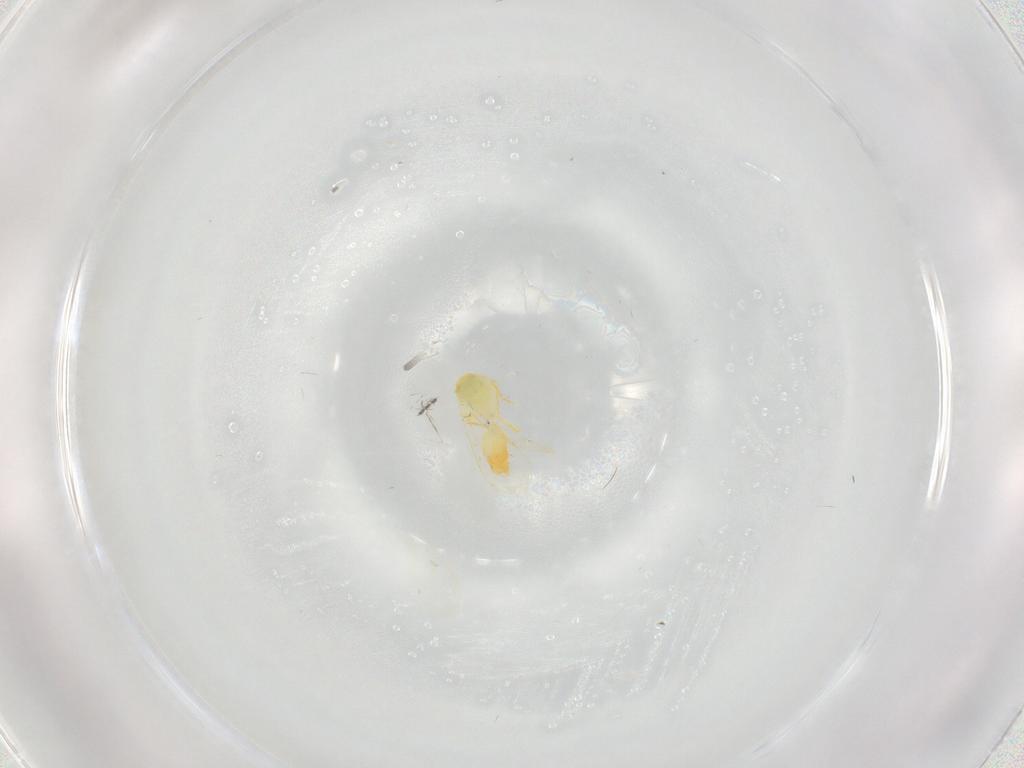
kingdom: Animalia
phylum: Arthropoda
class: Insecta
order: Hemiptera
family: Aleyrodidae
